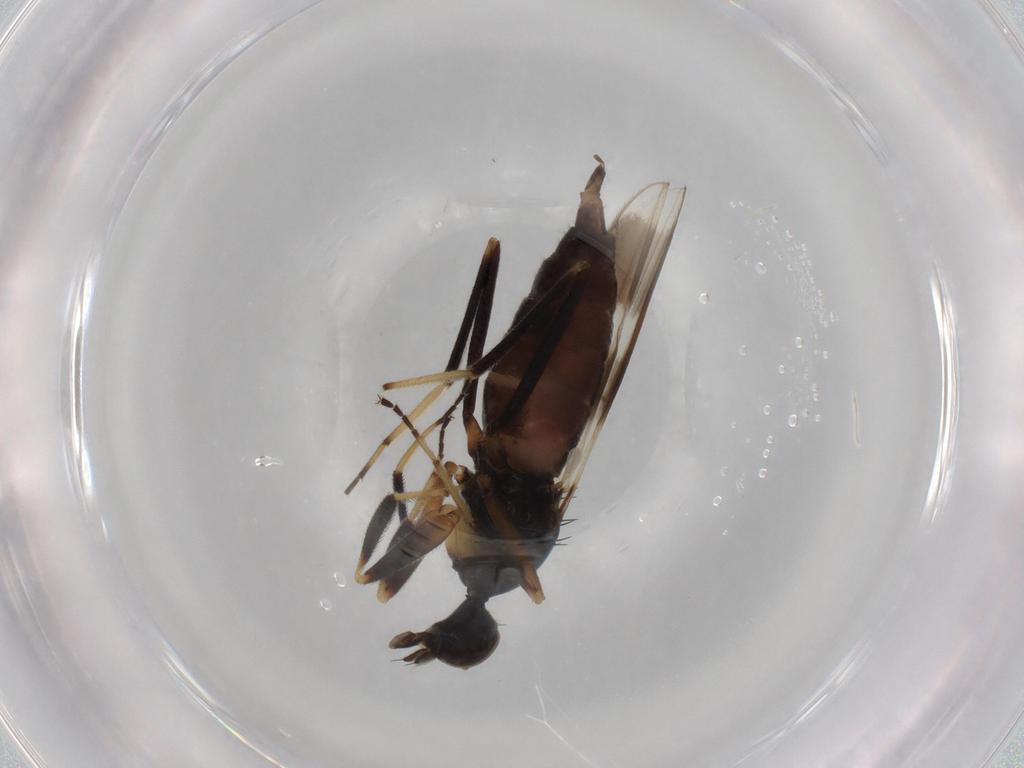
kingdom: Animalia
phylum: Arthropoda
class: Insecta
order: Diptera
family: Hybotidae
